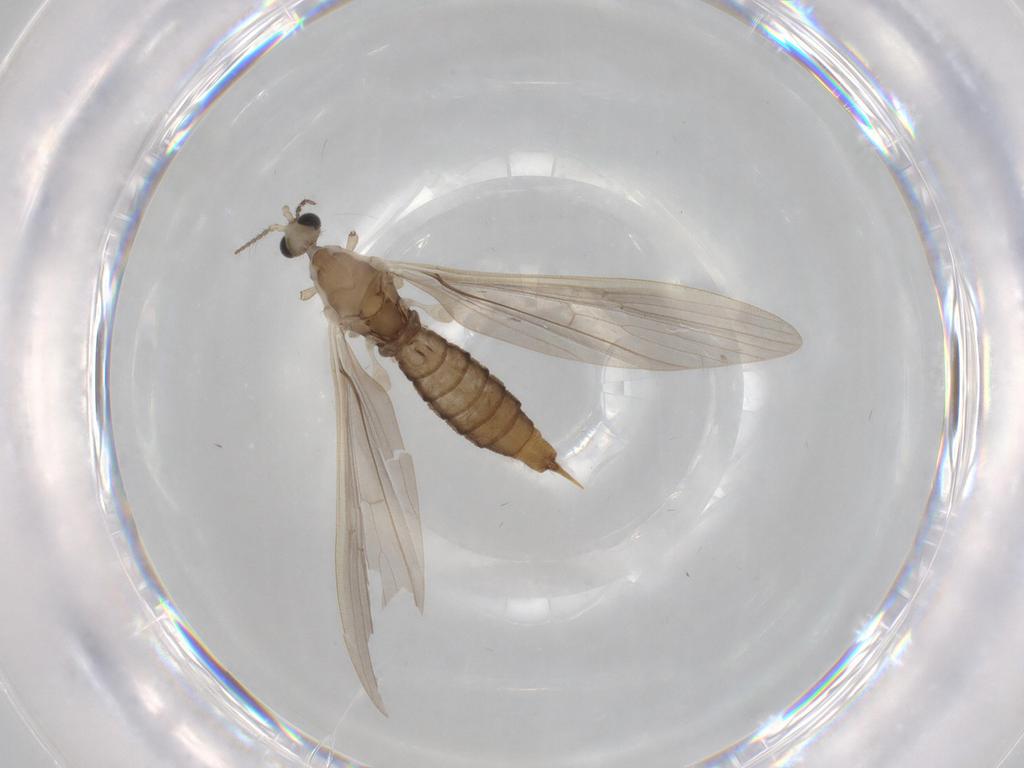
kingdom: Animalia
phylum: Arthropoda
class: Insecta
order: Diptera
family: Limoniidae
